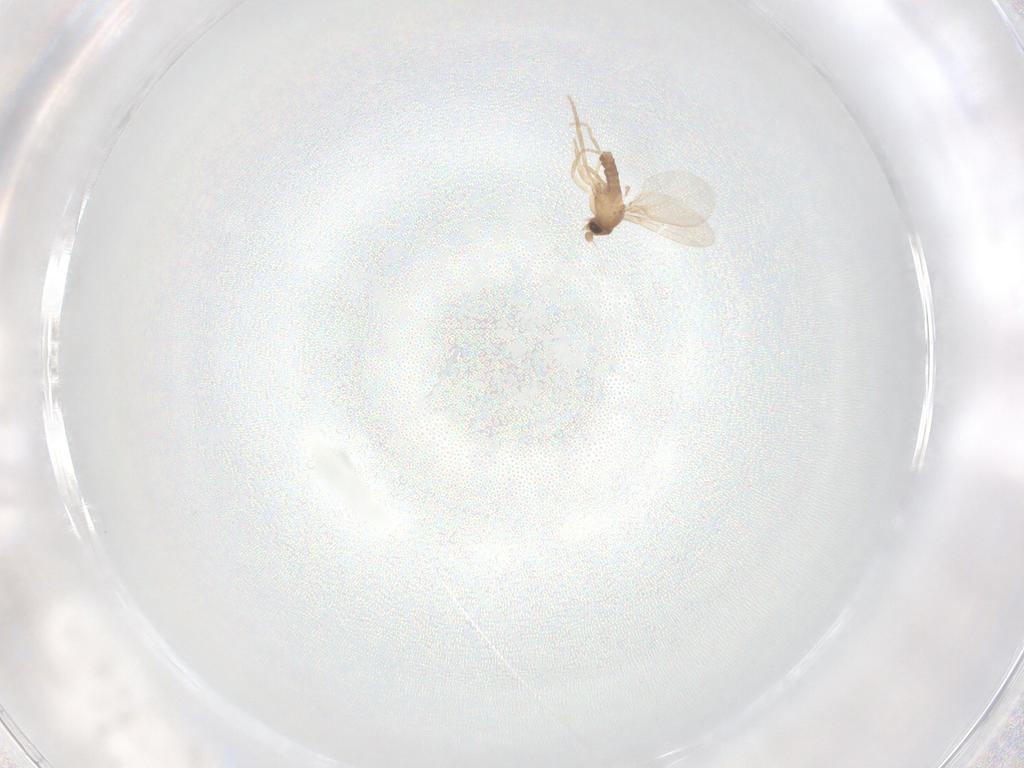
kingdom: Animalia
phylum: Arthropoda
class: Insecta
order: Diptera
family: Phoridae
